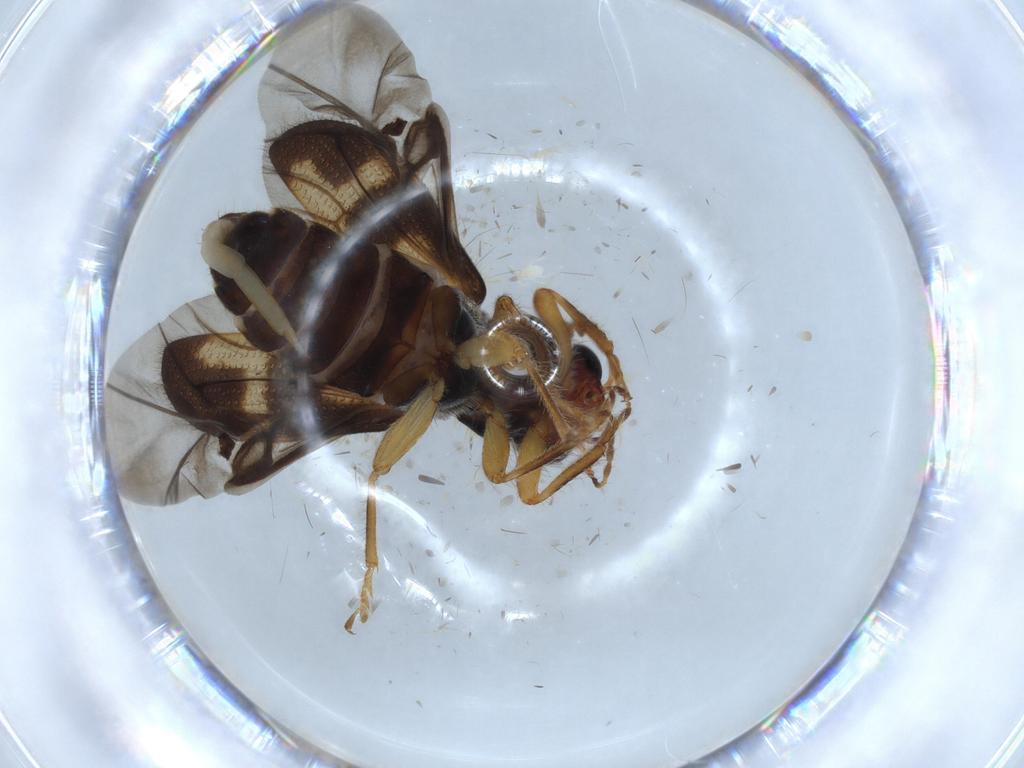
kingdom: Animalia
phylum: Arthropoda
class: Insecta
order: Coleoptera
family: Cleridae
